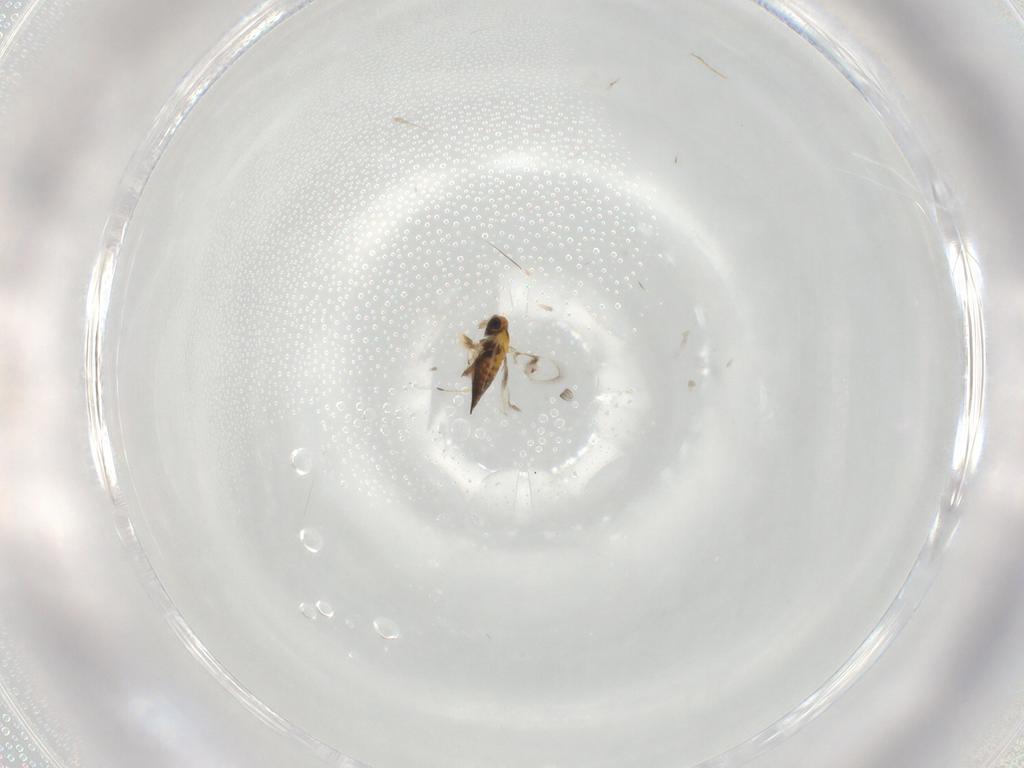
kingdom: Animalia
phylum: Arthropoda
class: Insecta
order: Hymenoptera
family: Trichogrammatidae
